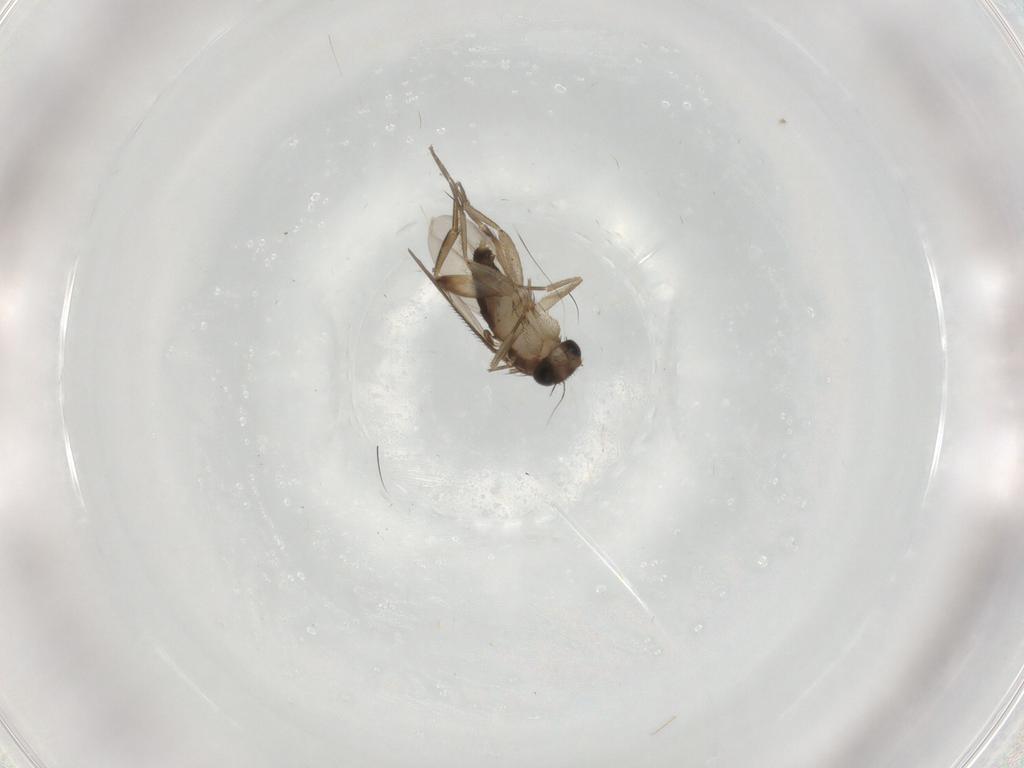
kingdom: Animalia
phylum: Arthropoda
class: Insecta
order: Diptera
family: Phoridae
